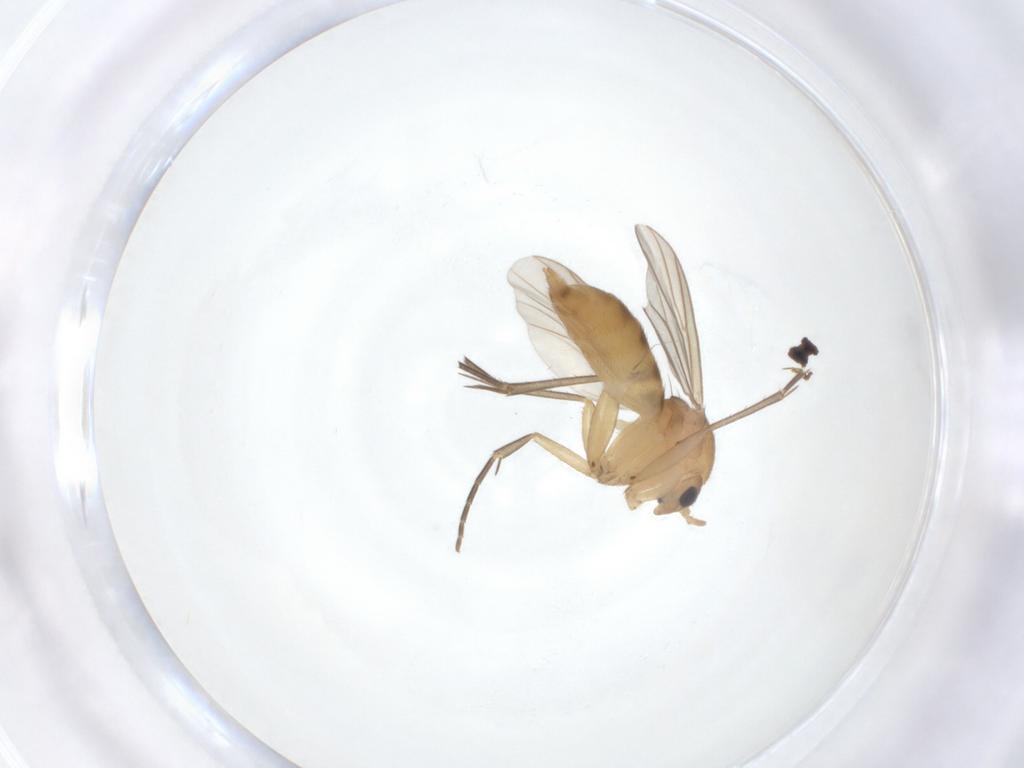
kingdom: Animalia
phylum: Arthropoda
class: Insecta
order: Diptera
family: Mycetophilidae
